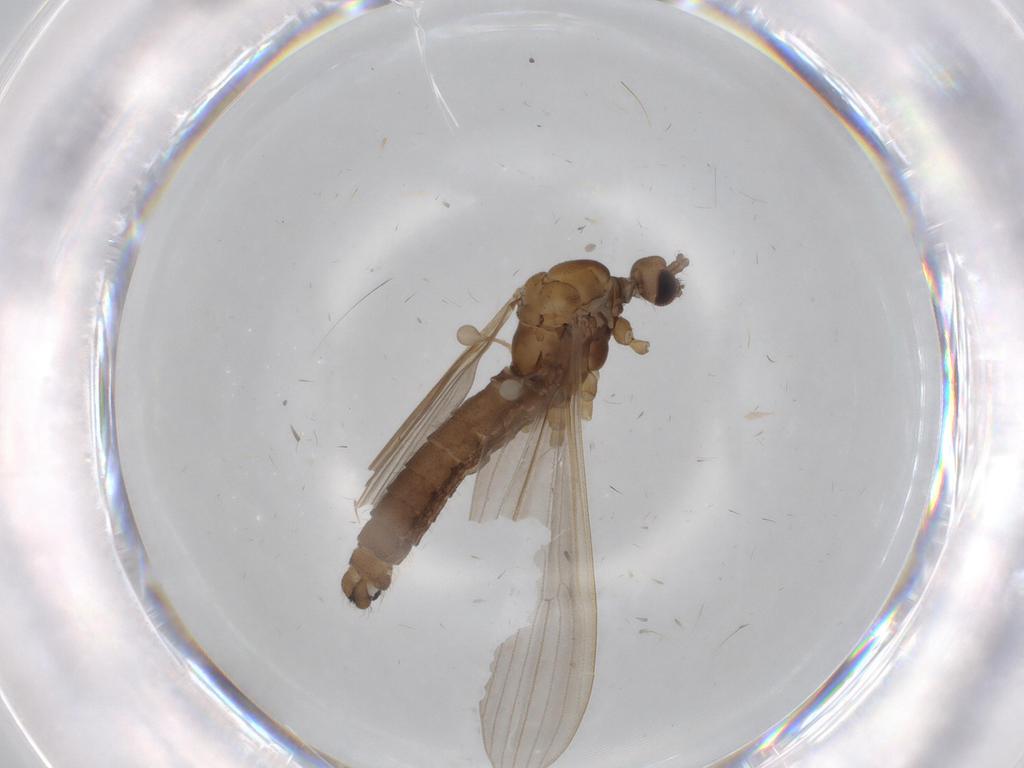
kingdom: Animalia
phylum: Arthropoda
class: Insecta
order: Diptera
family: Limoniidae
